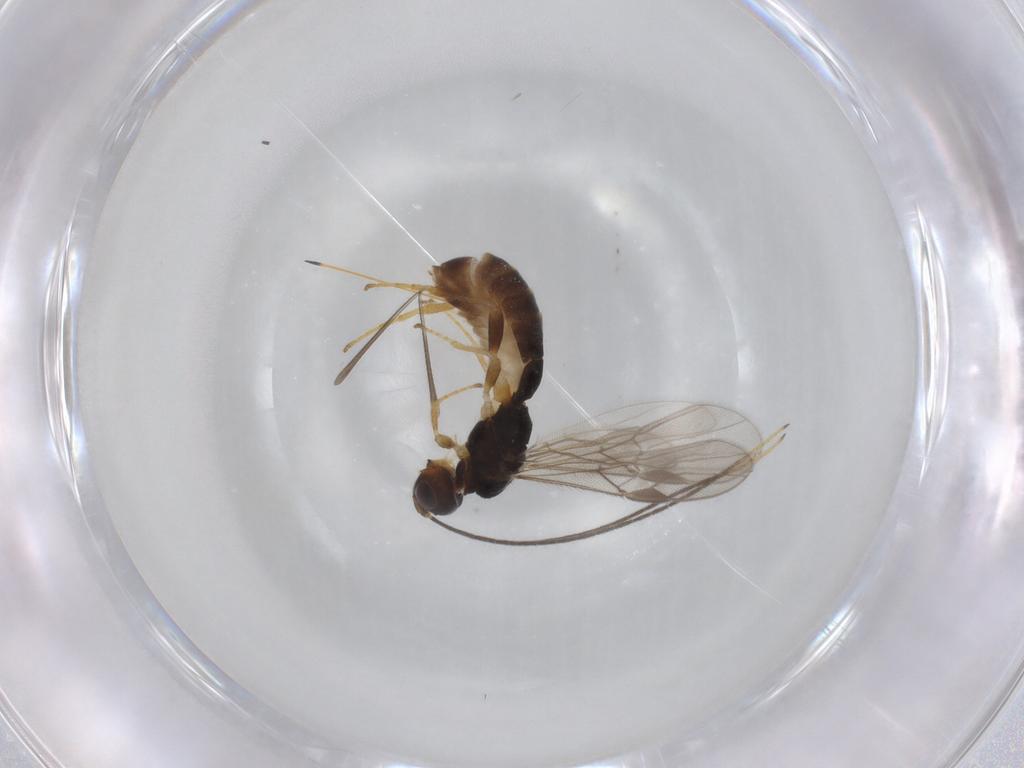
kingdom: Animalia
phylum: Arthropoda
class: Insecta
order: Hymenoptera
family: Braconidae
